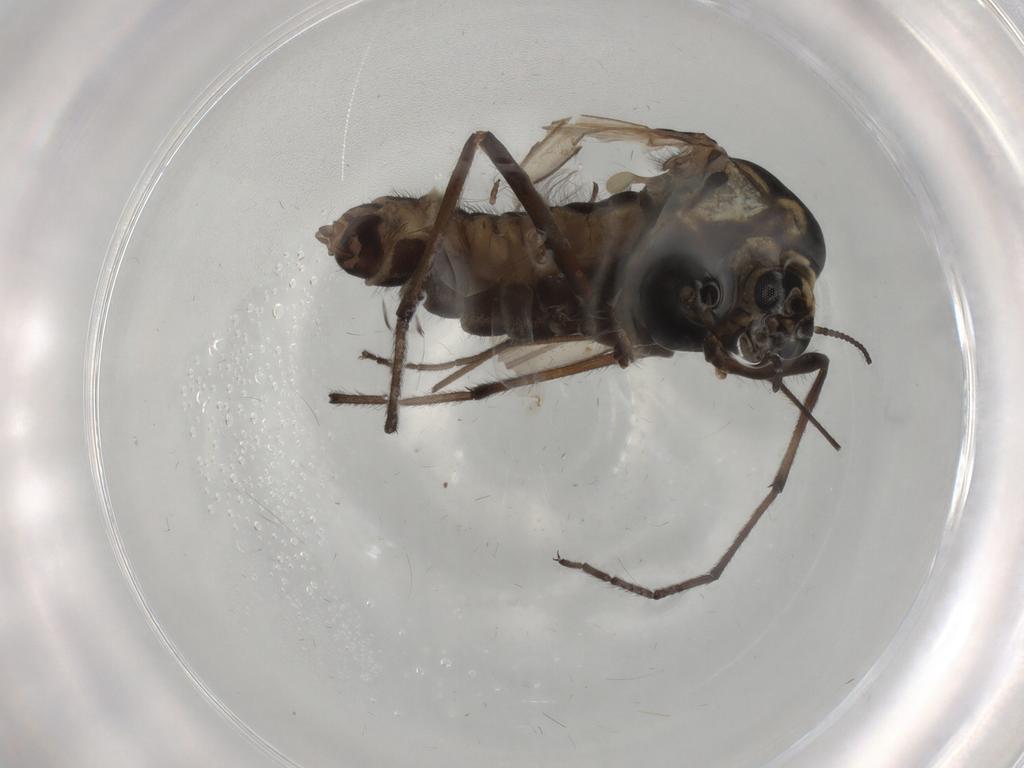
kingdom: Animalia
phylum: Arthropoda
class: Insecta
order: Diptera
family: Chironomidae
